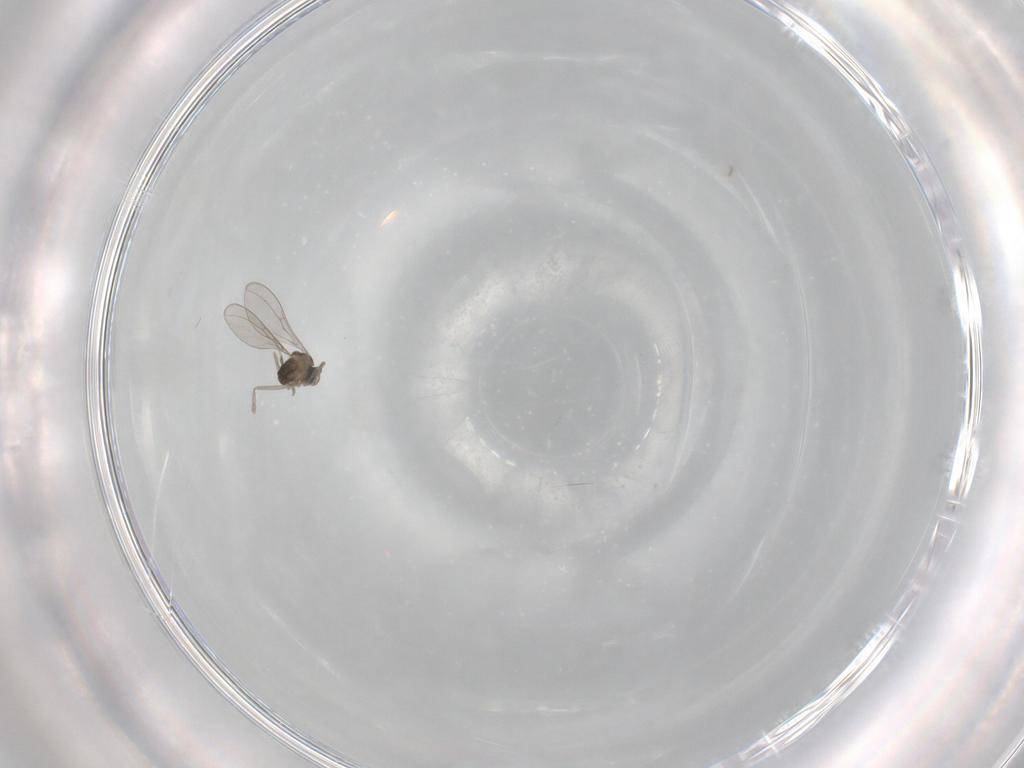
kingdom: Animalia
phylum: Arthropoda
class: Insecta
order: Diptera
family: Cecidomyiidae
